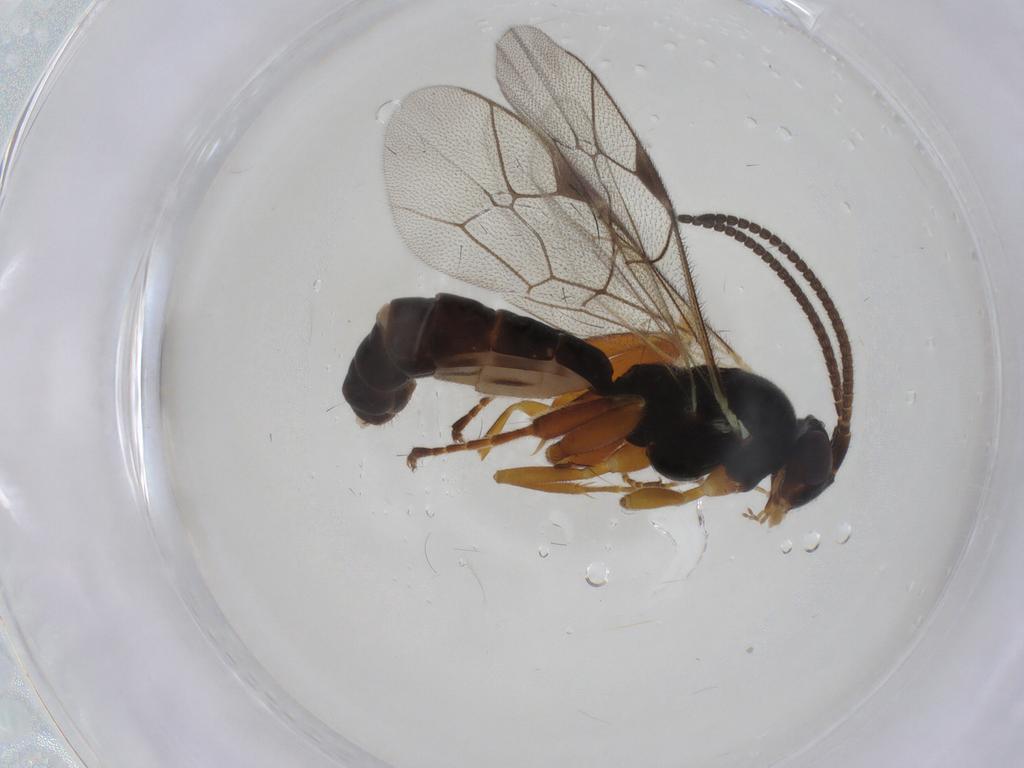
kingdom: Animalia
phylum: Arthropoda
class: Insecta
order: Hymenoptera
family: Ichneumonidae
